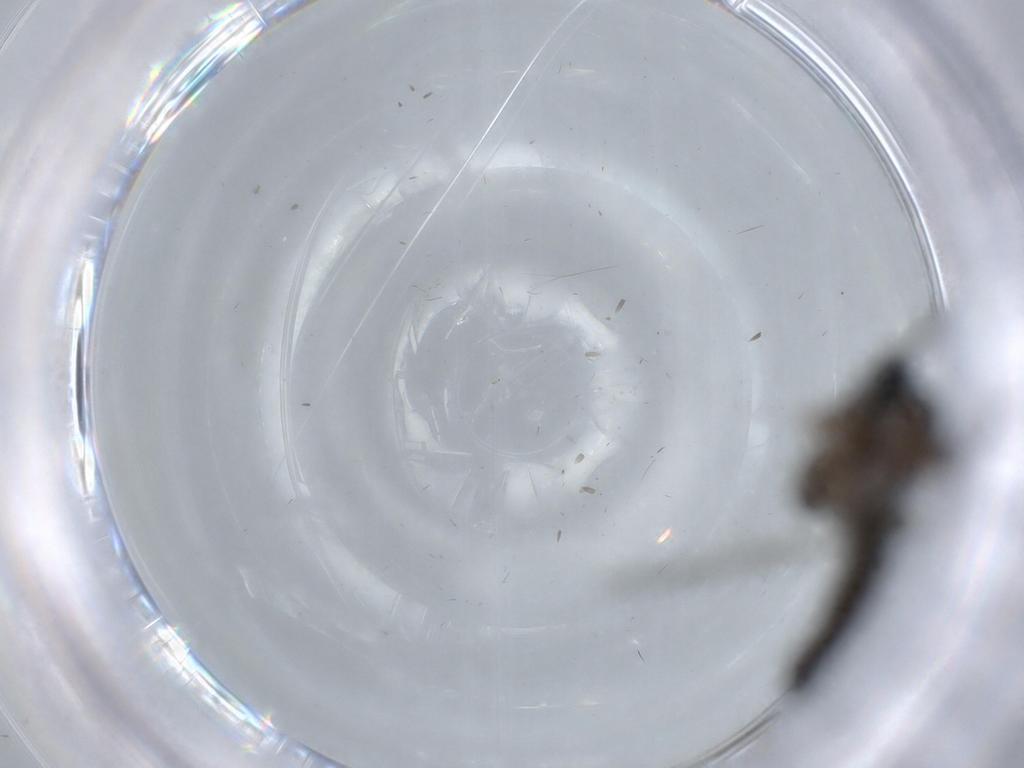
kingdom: Animalia
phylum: Arthropoda
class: Insecta
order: Diptera
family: Sciaridae
